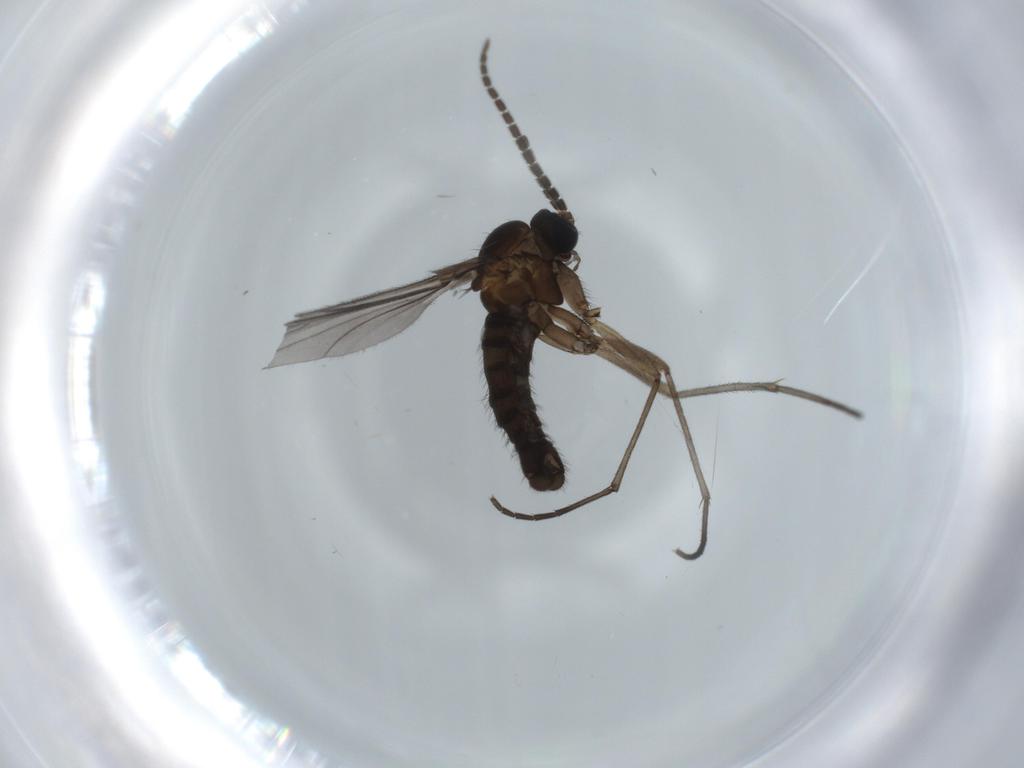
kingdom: Animalia
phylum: Arthropoda
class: Insecta
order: Diptera
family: Sciaridae
